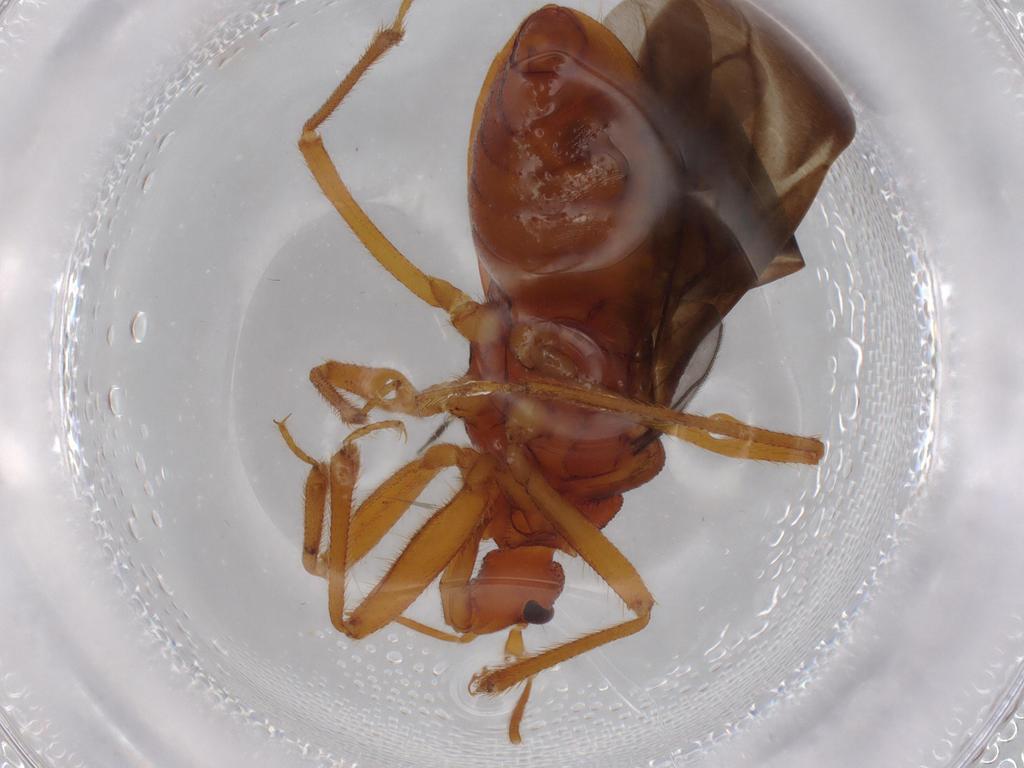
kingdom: Animalia
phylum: Arthropoda
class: Insecta
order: Hemiptera
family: Reduviidae
